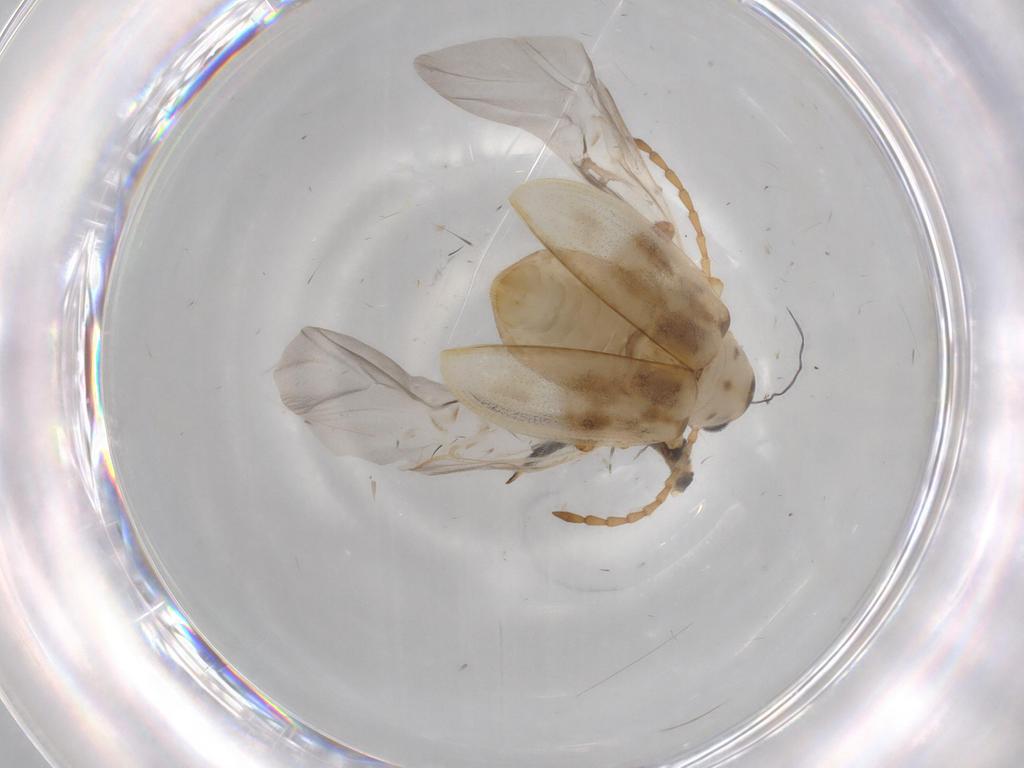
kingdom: Animalia
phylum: Arthropoda
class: Insecta
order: Coleoptera
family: Chrysomelidae
